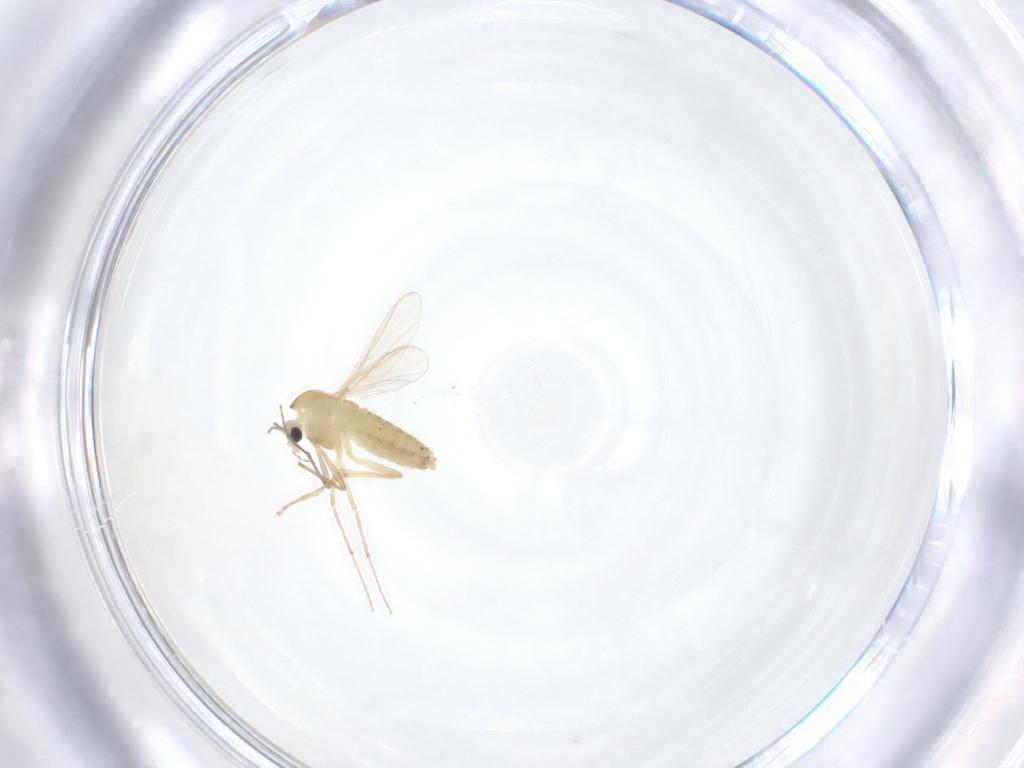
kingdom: Animalia
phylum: Arthropoda
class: Insecta
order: Diptera
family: Chironomidae
